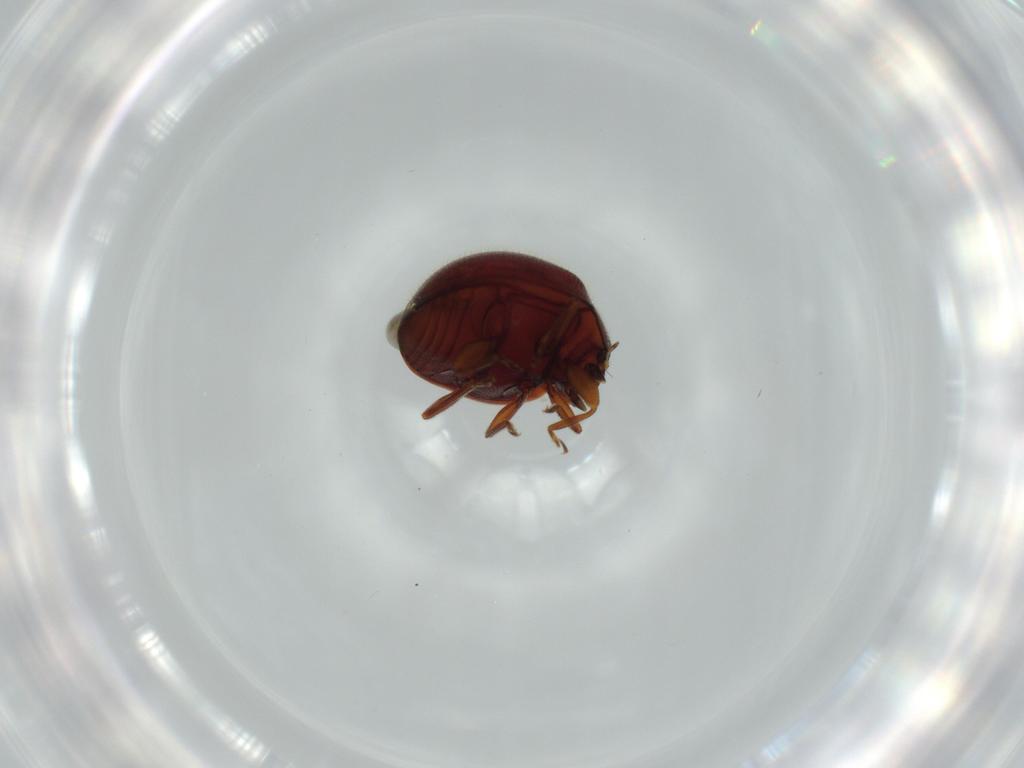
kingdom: Animalia
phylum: Arthropoda
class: Insecta
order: Coleoptera
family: Coccinellidae
